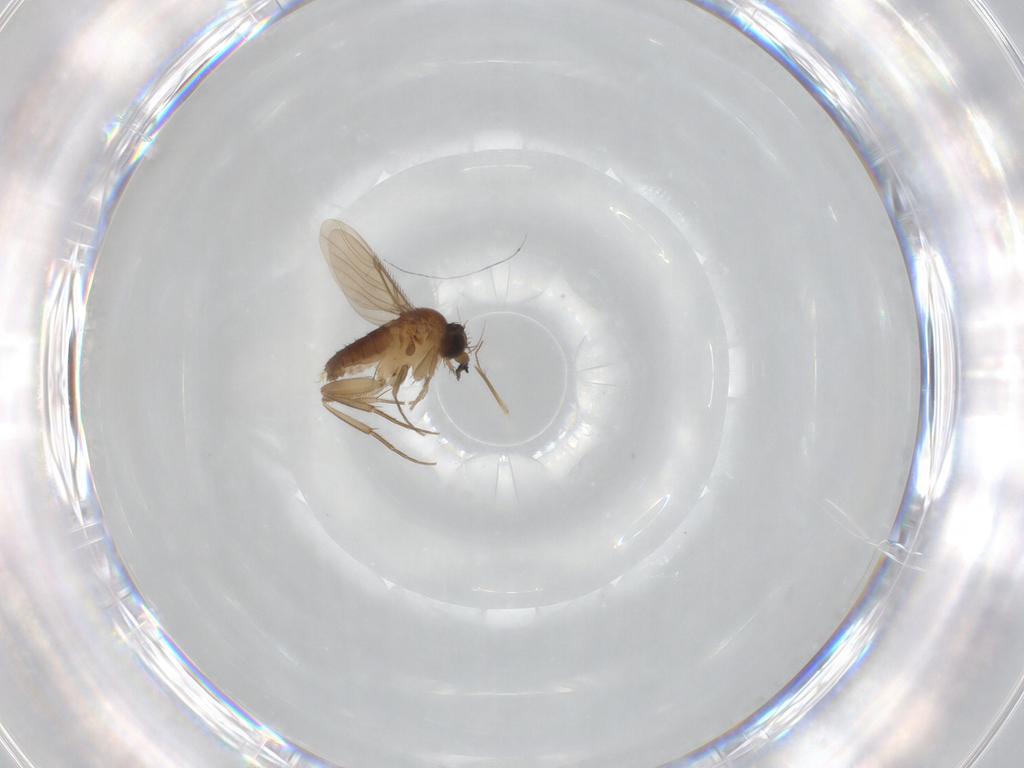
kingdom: Animalia
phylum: Arthropoda
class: Insecta
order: Diptera
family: Phoridae
